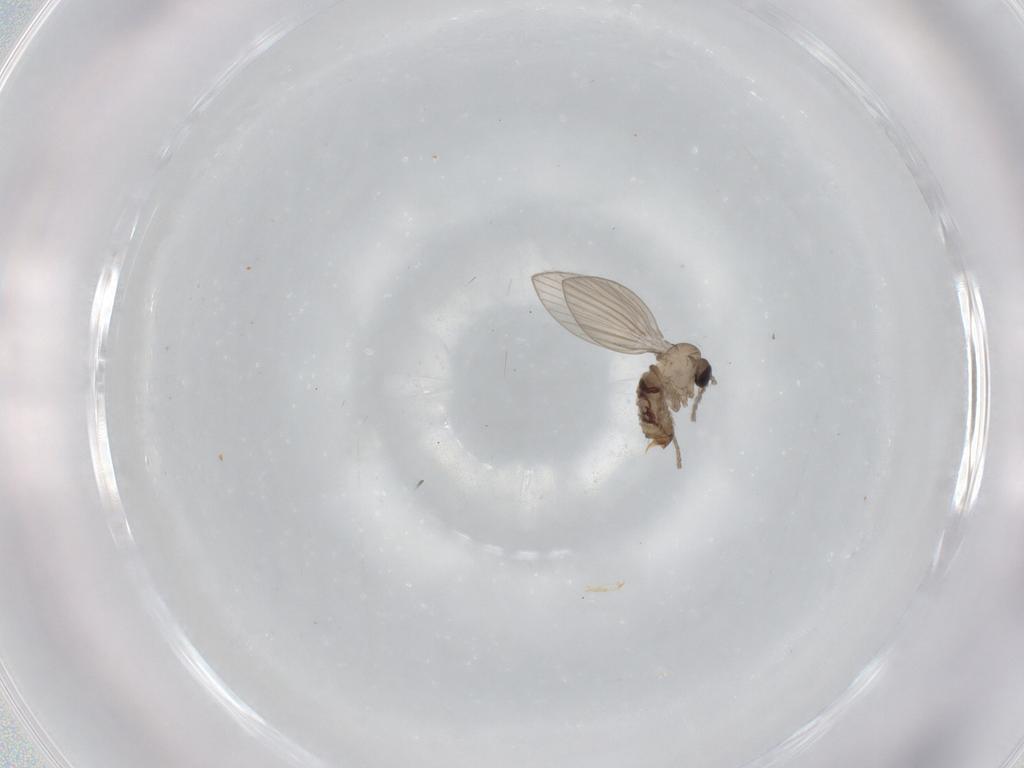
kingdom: Animalia
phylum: Arthropoda
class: Insecta
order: Diptera
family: Psychodidae
